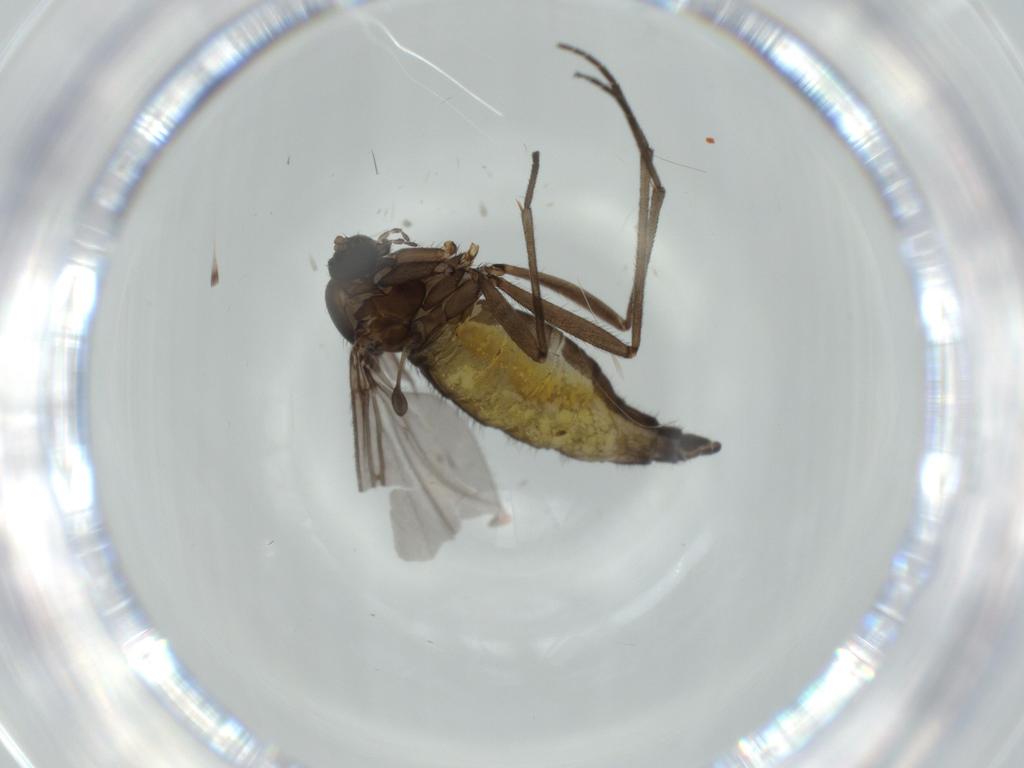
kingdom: Animalia
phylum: Arthropoda
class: Insecta
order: Diptera
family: Sciaridae
